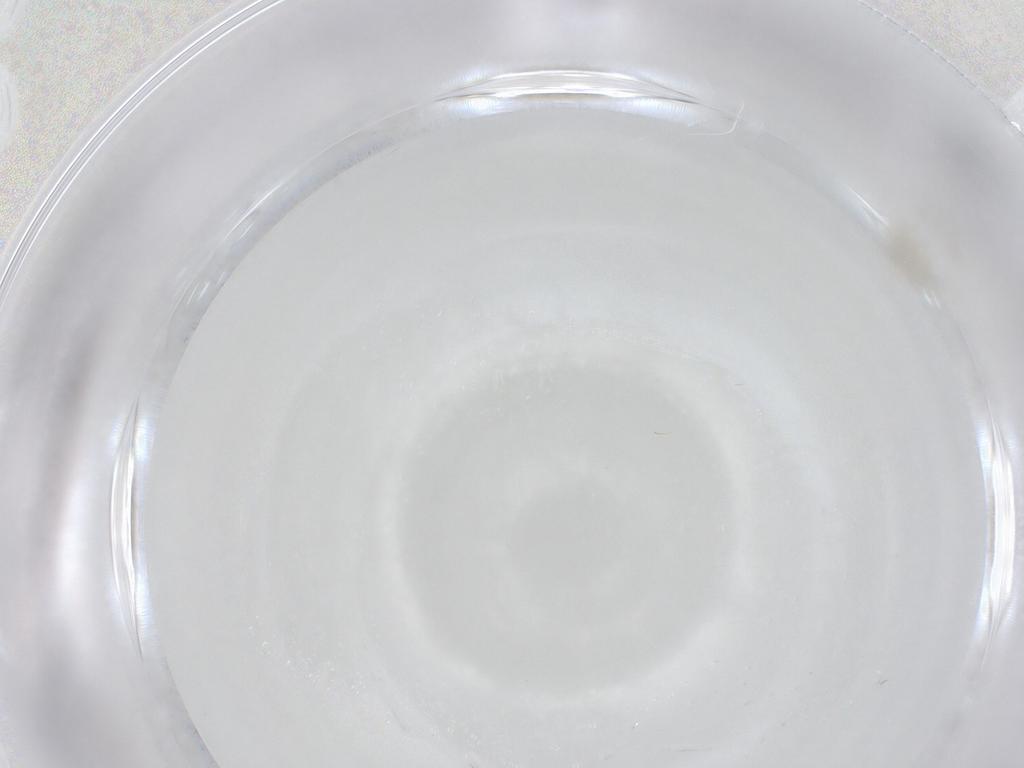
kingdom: Animalia
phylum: Arthropoda
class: Insecta
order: Diptera
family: Cecidomyiidae
